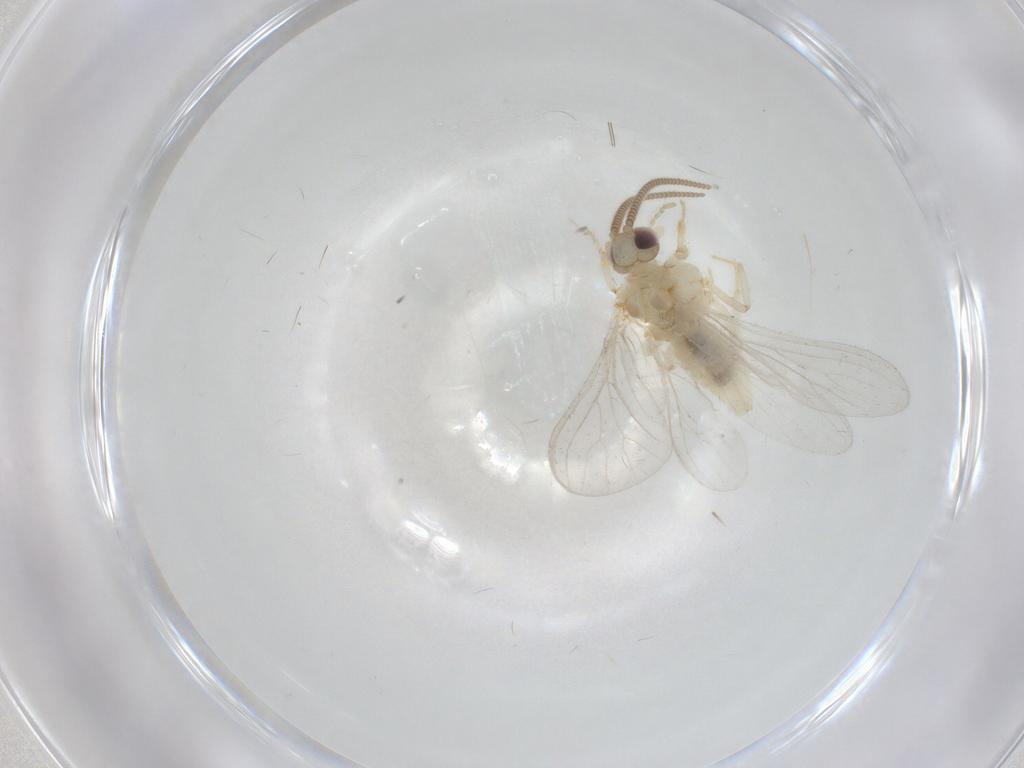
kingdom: Animalia
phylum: Arthropoda
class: Insecta
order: Neuroptera
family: Coniopterygidae
